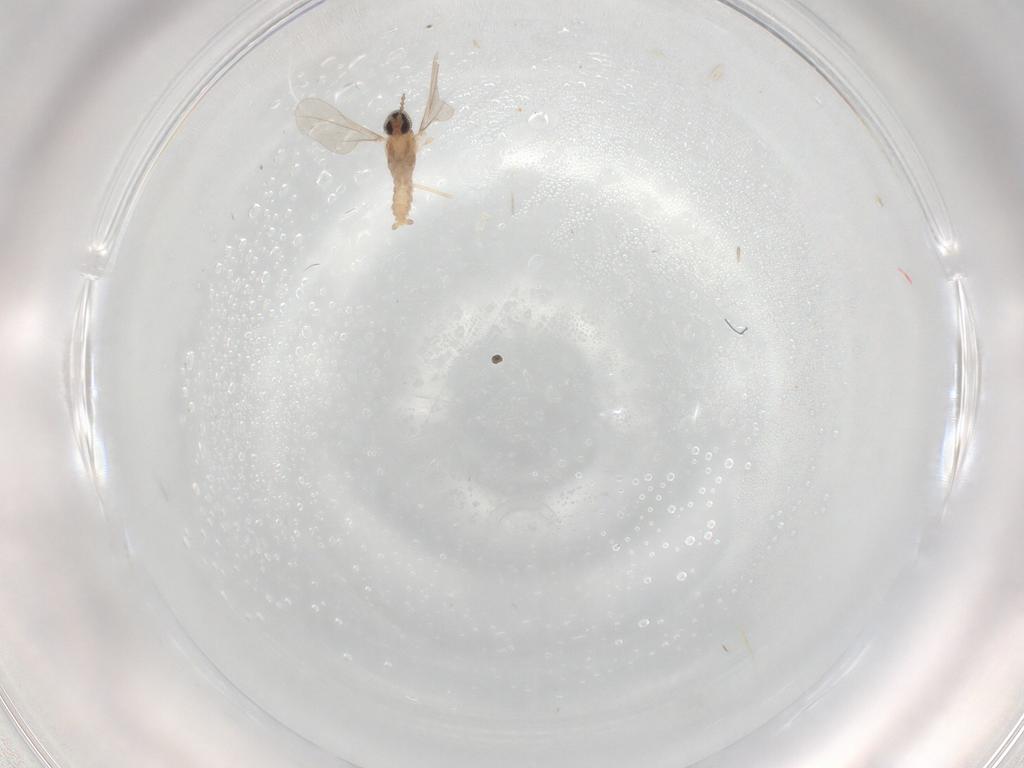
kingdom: Animalia
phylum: Arthropoda
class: Insecta
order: Diptera
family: Cecidomyiidae
